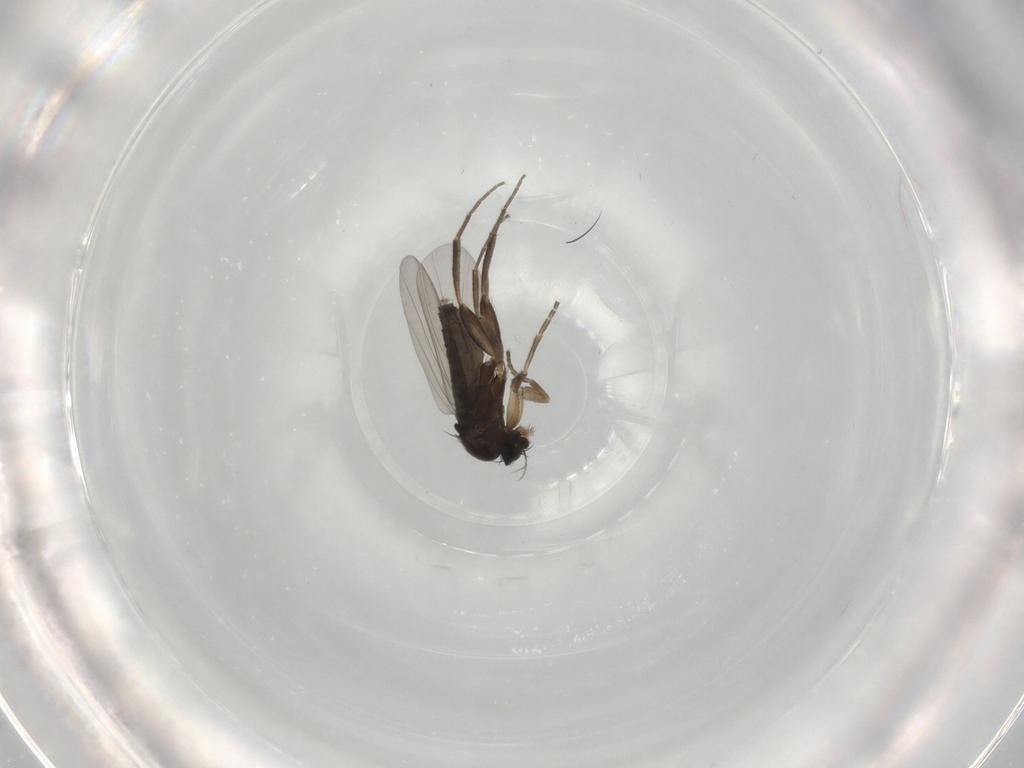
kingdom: Animalia
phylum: Arthropoda
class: Insecta
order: Diptera
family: Phoridae
